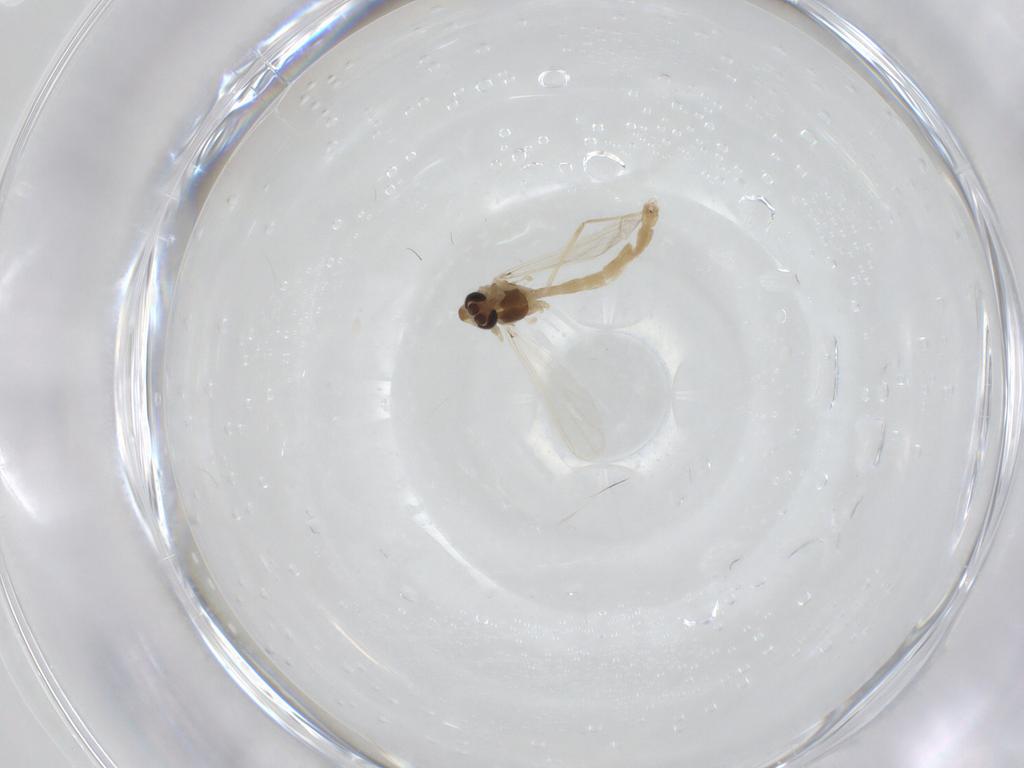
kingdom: Animalia
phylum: Arthropoda
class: Insecta
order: Diptera
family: Chironomidae
